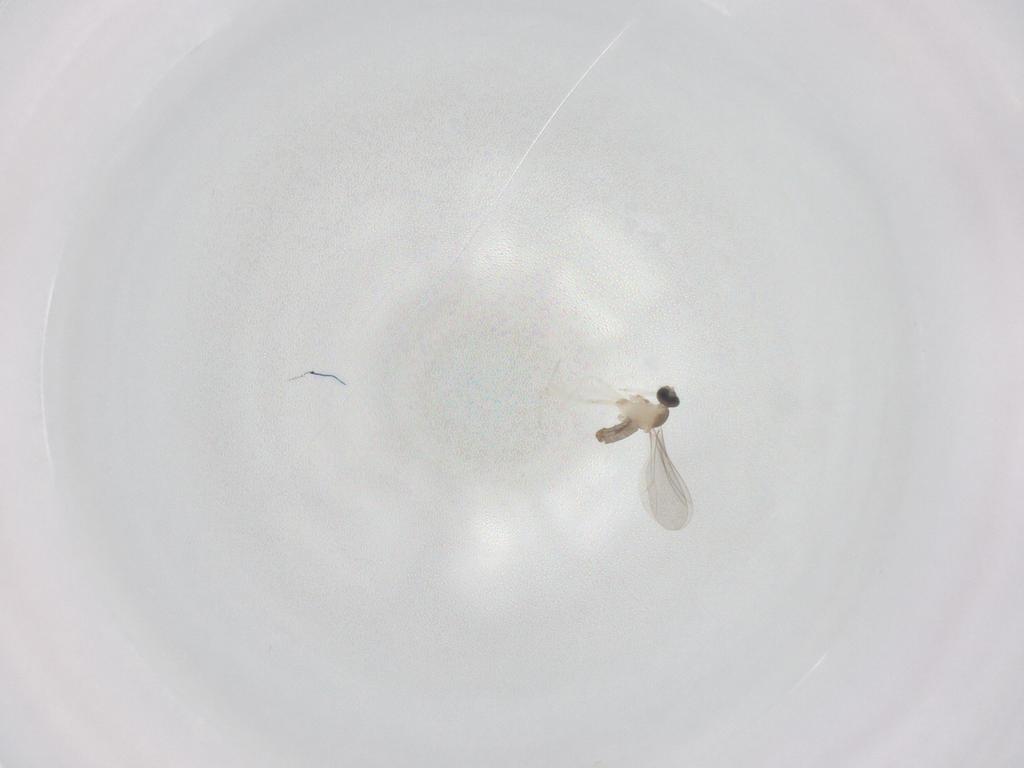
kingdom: Animalia
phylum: Arthropoda
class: Insecta
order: Diptera
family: Cecidomyiidae
